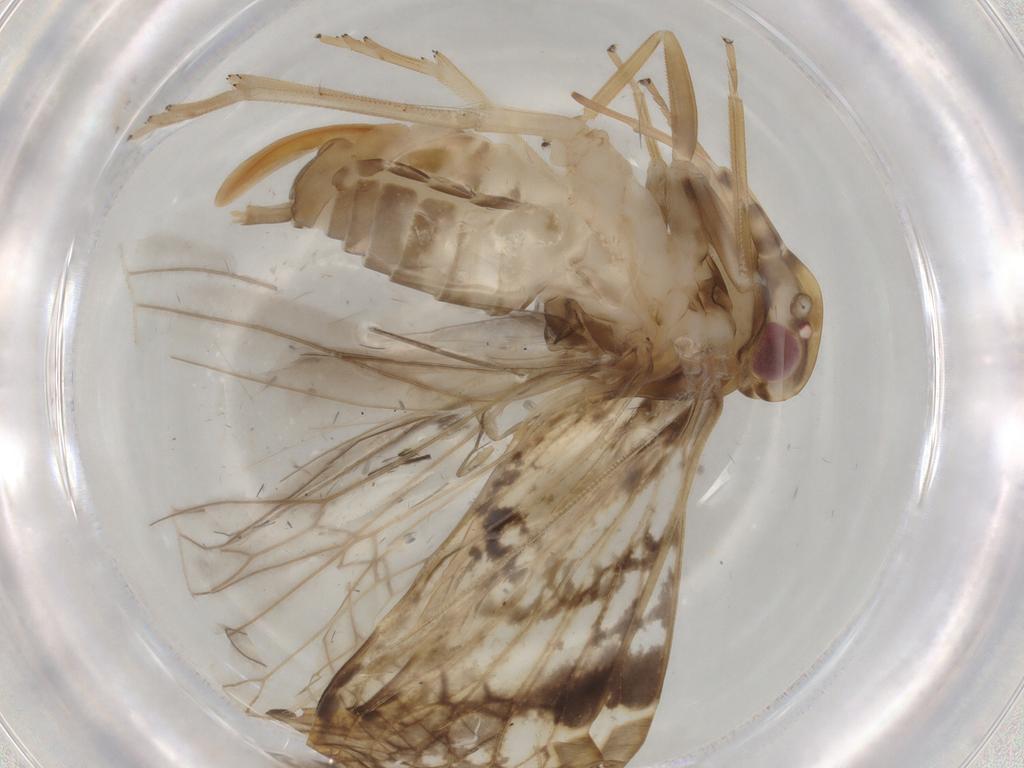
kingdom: Animalia
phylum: Arthropoda
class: Insecta
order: Hemiptera
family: Cixiidae
